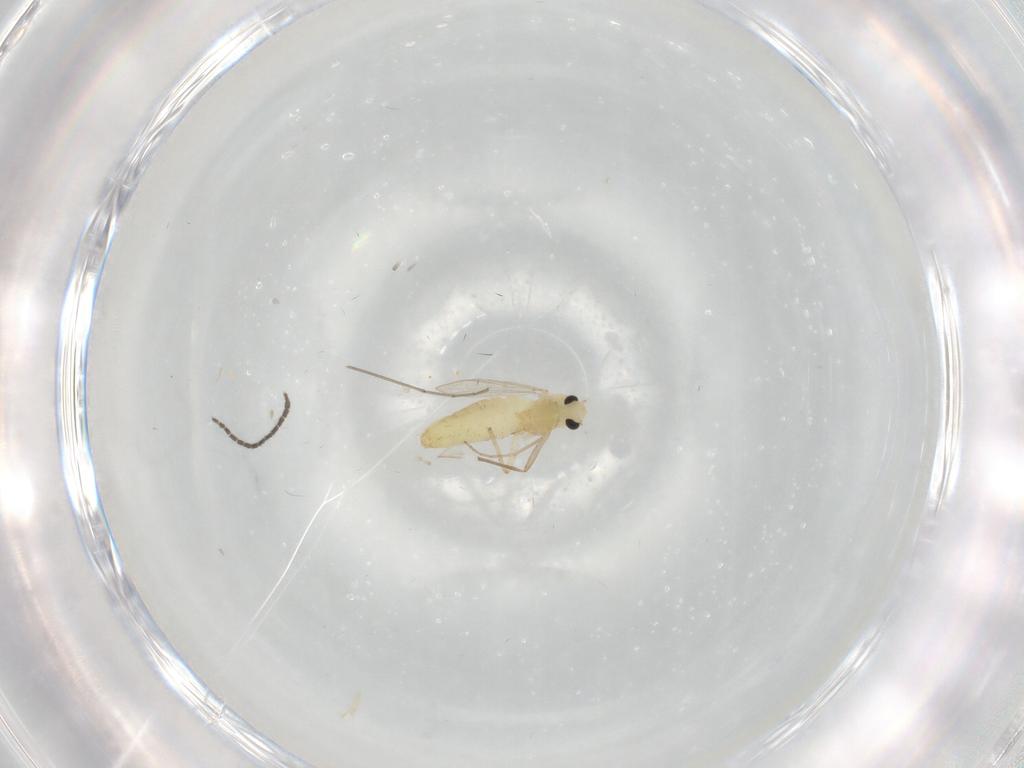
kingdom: Animalia
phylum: Arthropoda
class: Insecta
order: Diptera
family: Chironomidae
